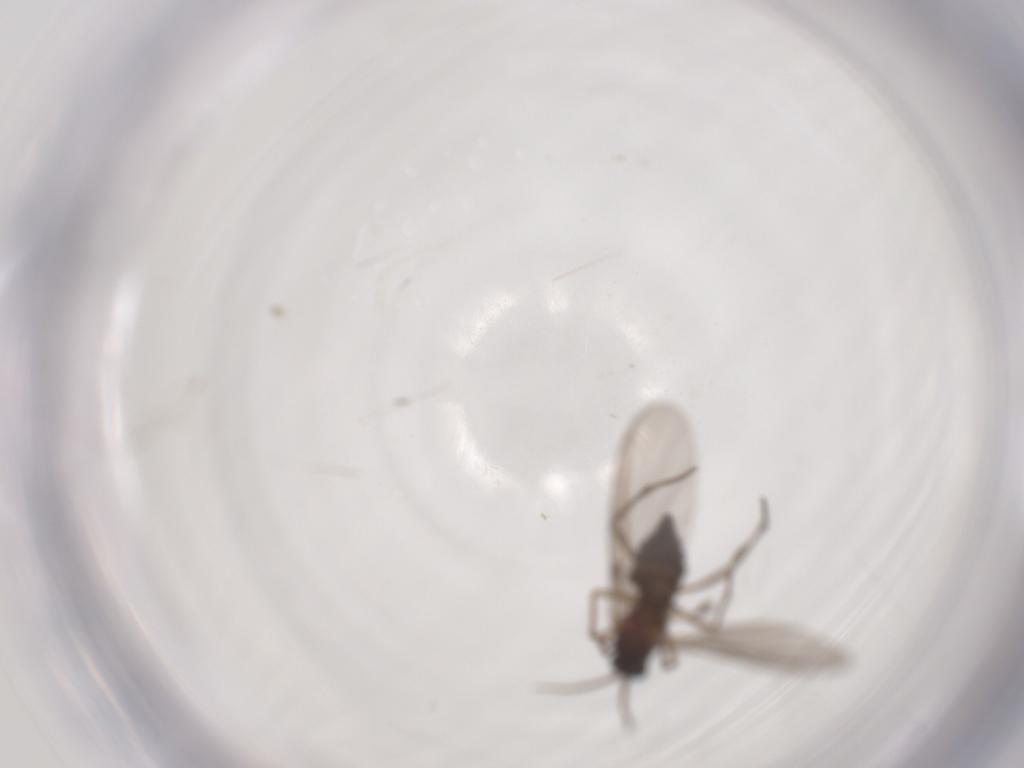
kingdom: Animalia
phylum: Arthropoda
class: Insecta
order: Diptera
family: Sciaridae
